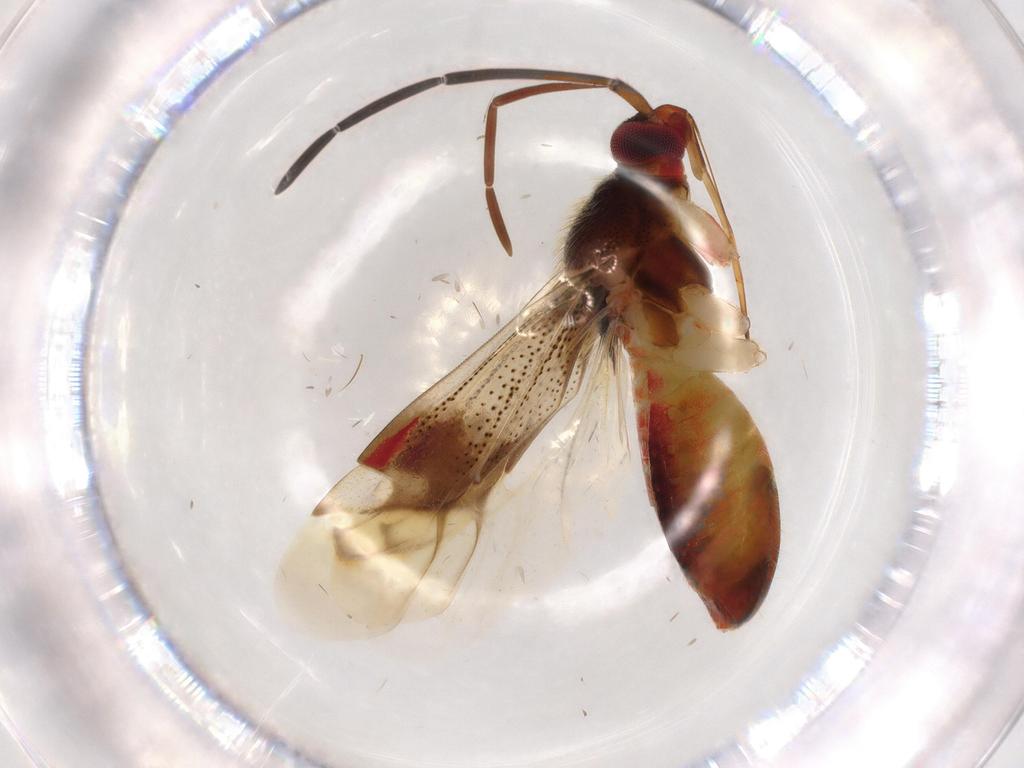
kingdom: Animalia
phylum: Arthropoda
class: Insecta
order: Hemiptera
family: Miridae
